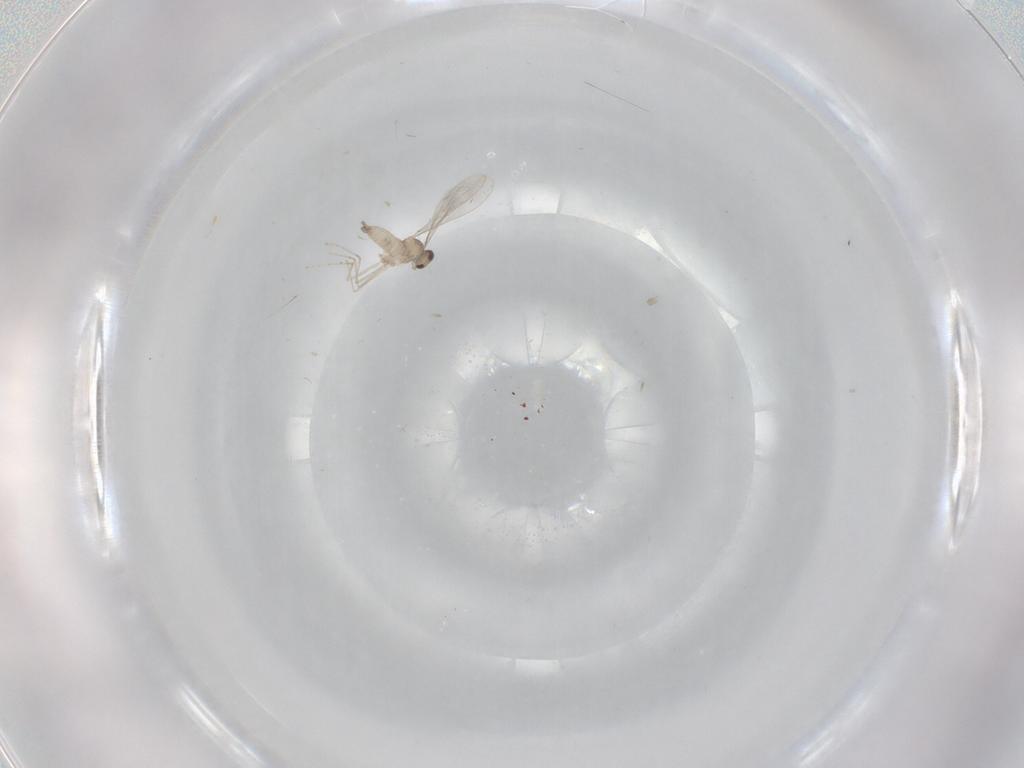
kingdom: Animalia
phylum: Arthropoda
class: Insecta
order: Diptera
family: Cecidomyiidae
